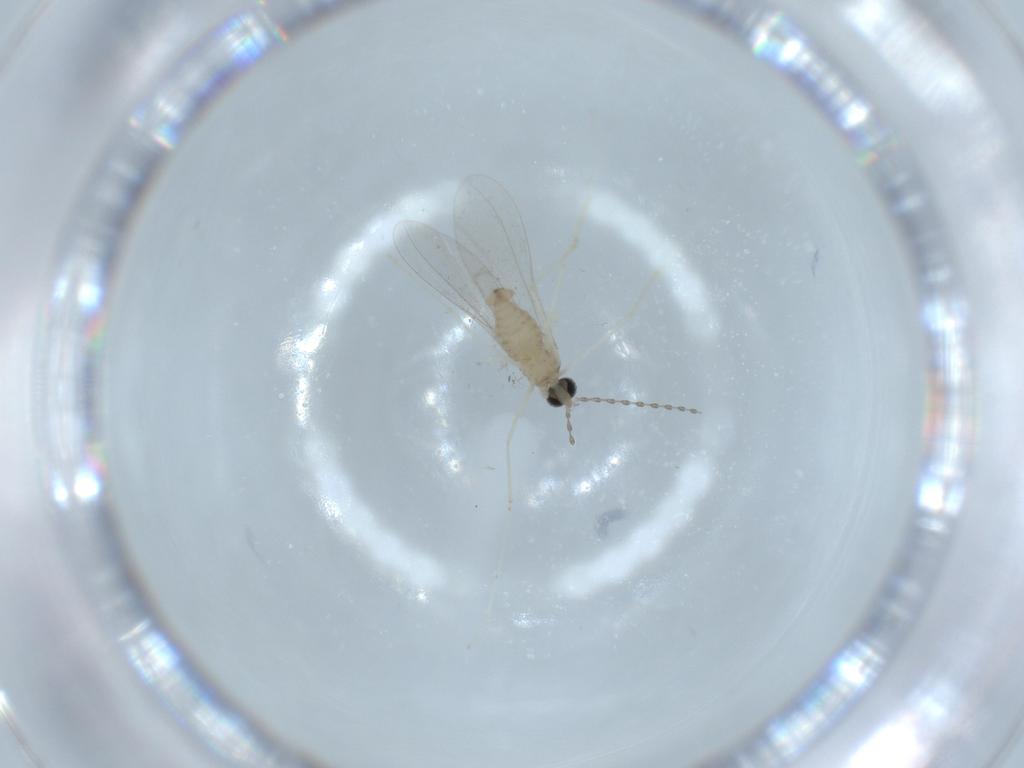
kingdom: Animalia
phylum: Arthropoda
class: Insecta
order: Diptera
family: Cecidomyiidae
